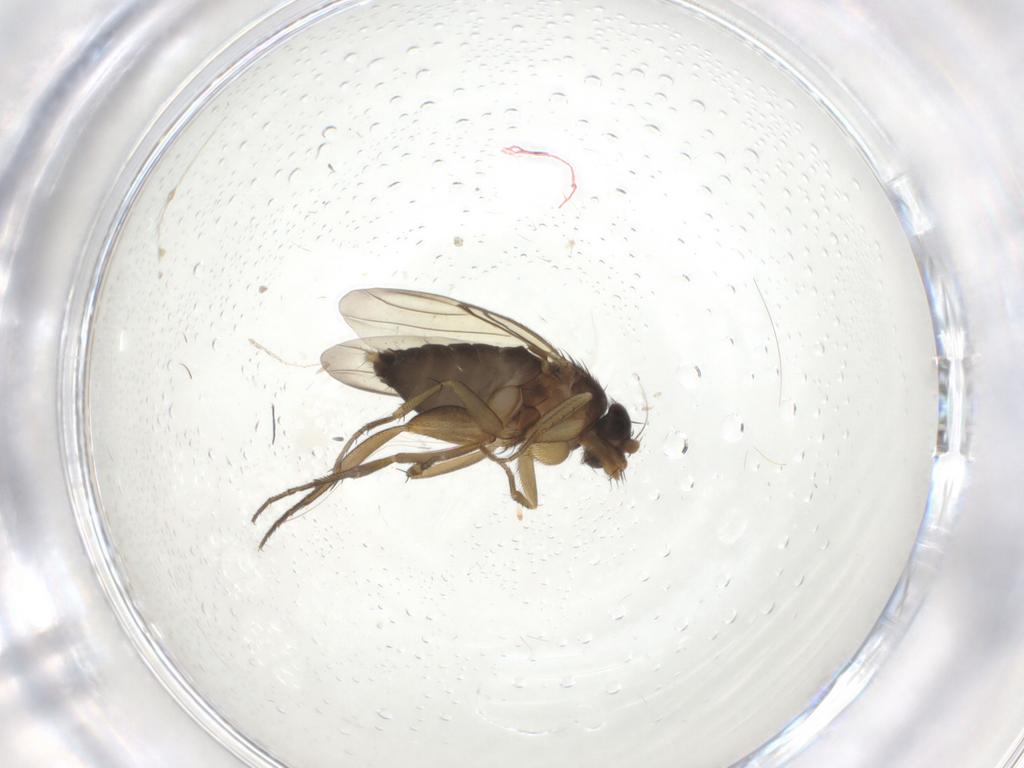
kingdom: Animalia
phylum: Arthropoda
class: Insecta
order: Diptera
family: Phoridae
